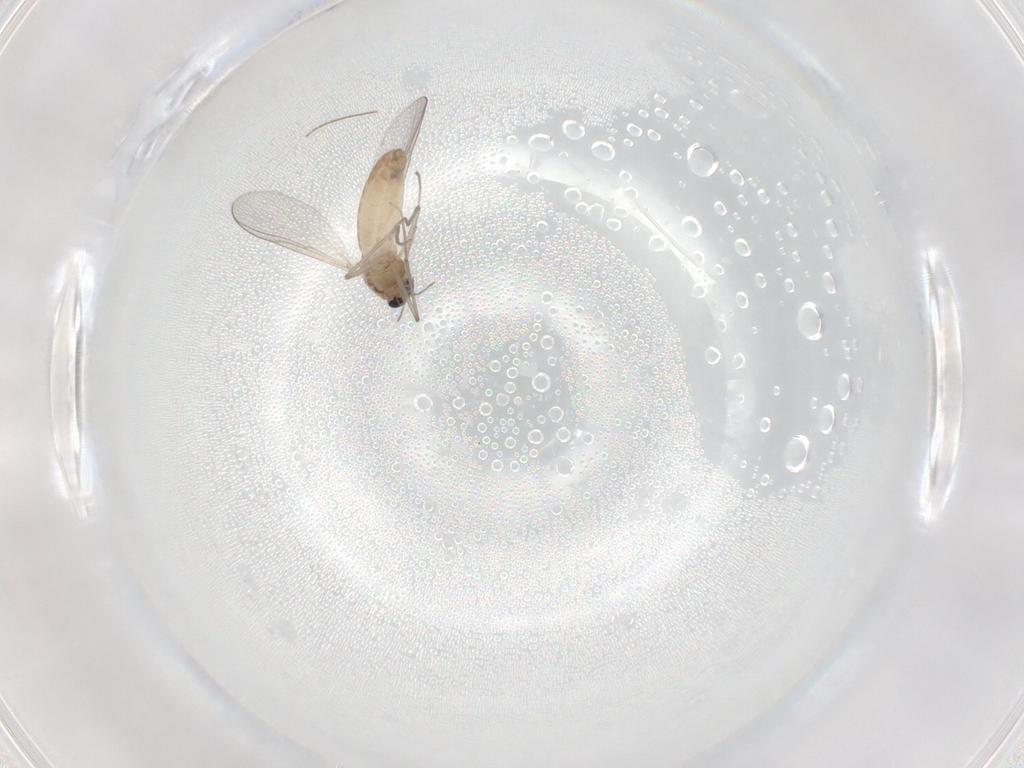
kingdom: Animalia
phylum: Arthropoda
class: Insecta
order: Diptera
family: Chironomidae
